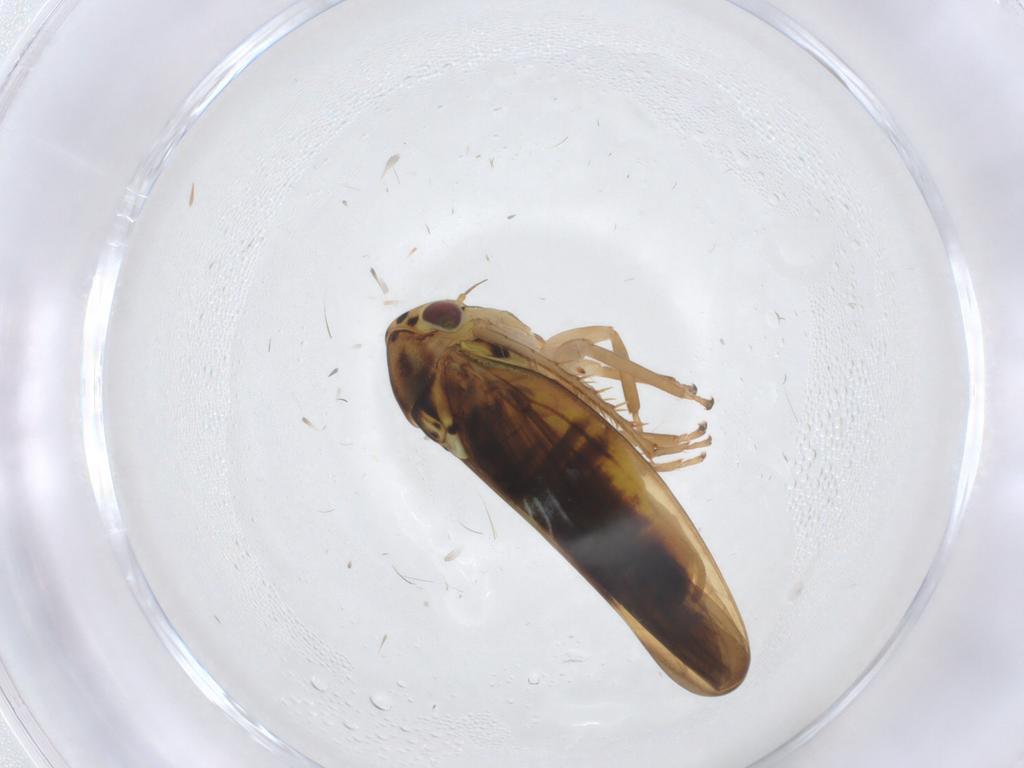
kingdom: Animalia
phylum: Arthropoda
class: Insecta
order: Hemiptera
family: Cicadellidae
